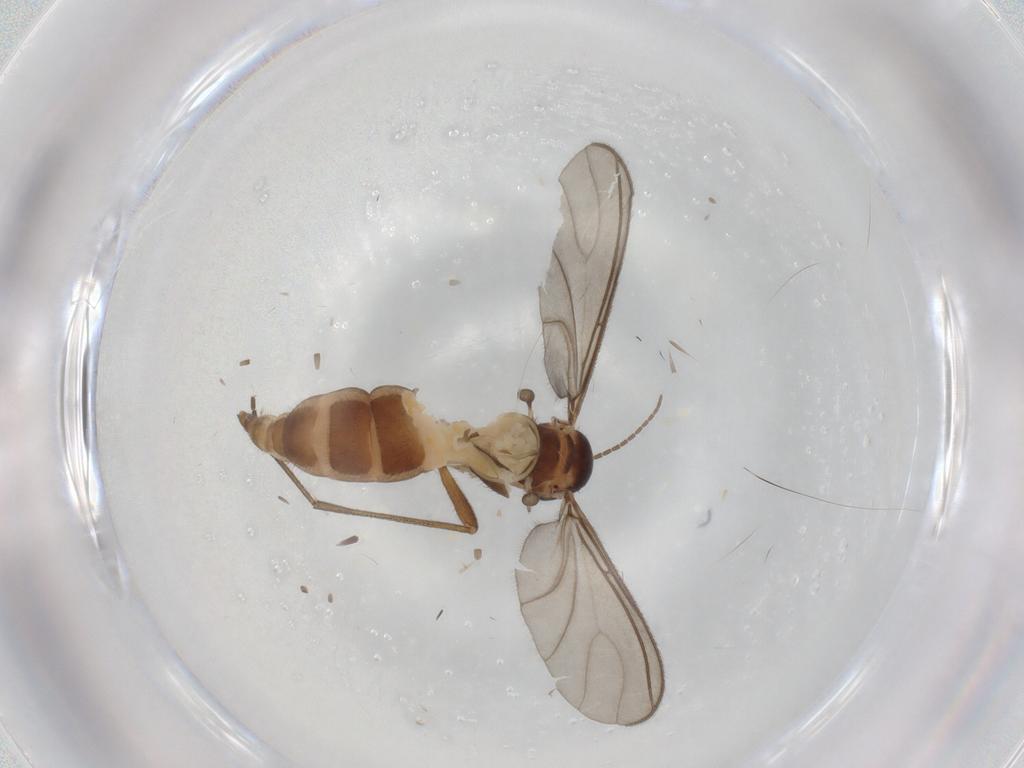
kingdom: Animalia
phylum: Arthropoda
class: Insecta
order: Diptera
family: Sciaridae
